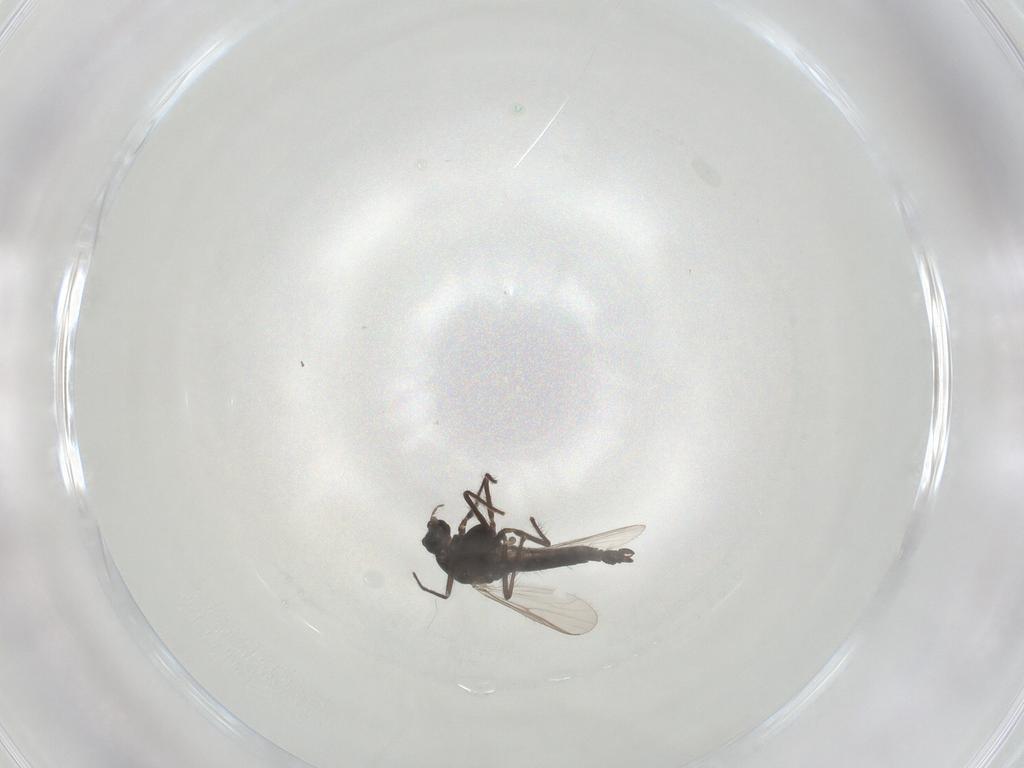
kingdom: Animalia
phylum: Arthropoda
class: Insecta
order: Diptera
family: Chironomidae
